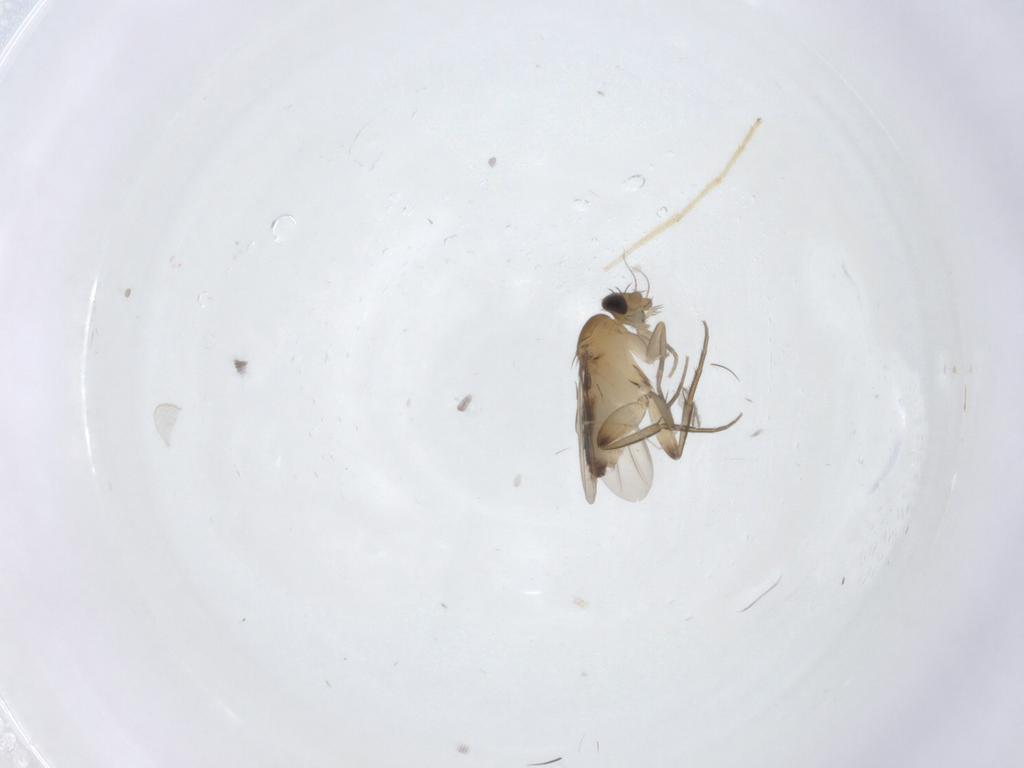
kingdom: Animalia
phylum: Arthropoda
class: Insecta
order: Diptera
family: Phoridae
